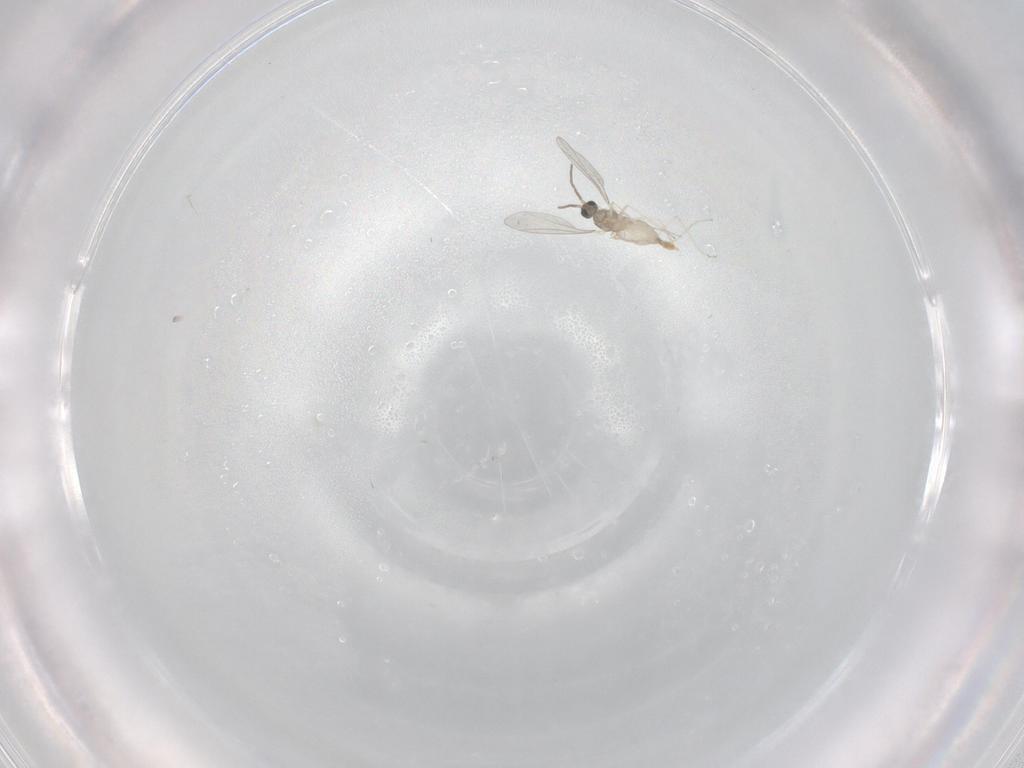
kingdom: Animalia
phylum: Arthropoda
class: Insecta
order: Diptera
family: Cecidomyiidae
